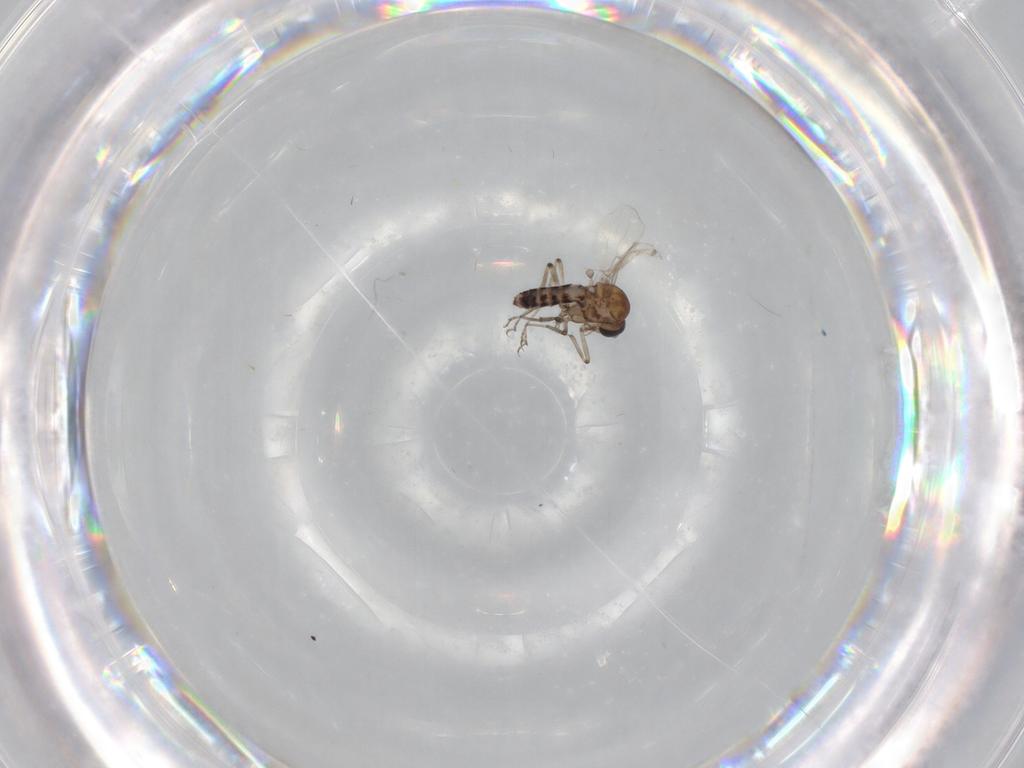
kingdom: Animalia
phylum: Arthropoda
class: Insecta
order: Diptera
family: Ceratopogonidae
